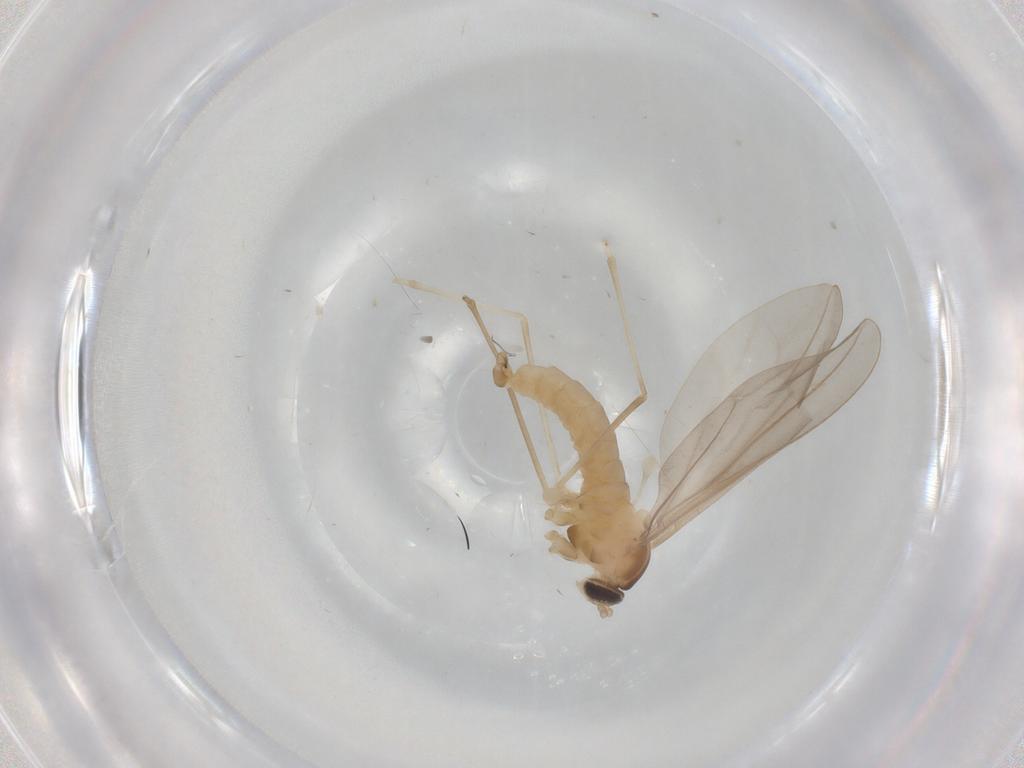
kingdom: Animalia
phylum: Arthropoda
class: Insecta
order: Diptera
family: Cecidomyiidae
